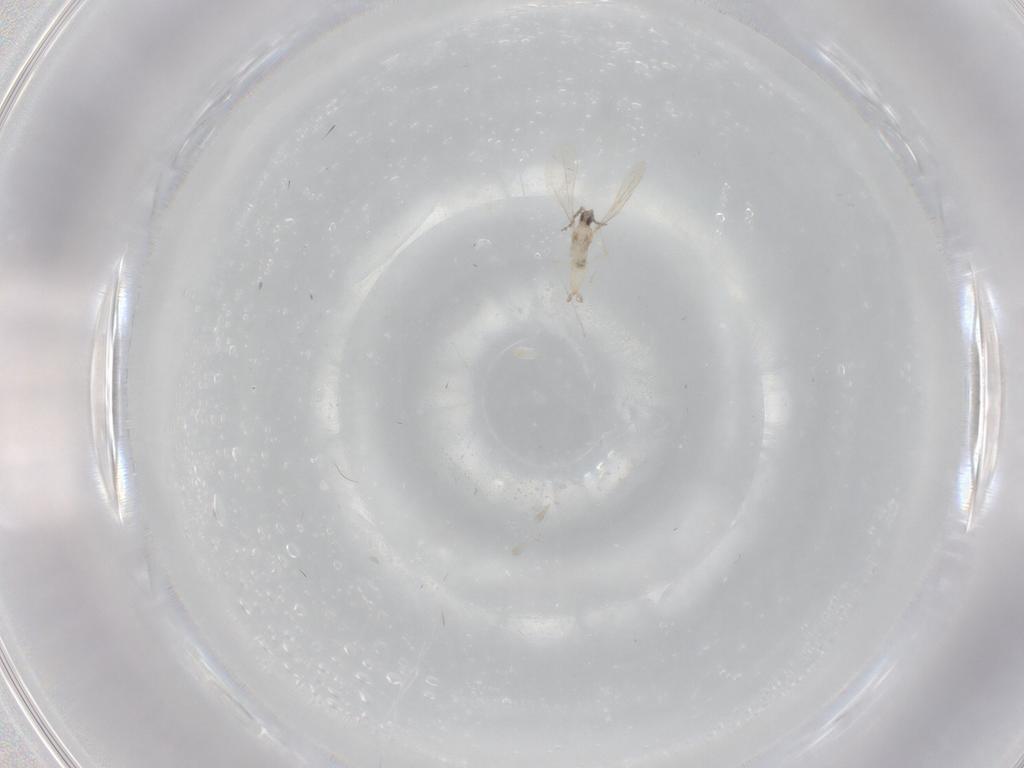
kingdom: Animalia
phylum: Arthropoda
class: Insecta
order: Diptera
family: Psychodidae
